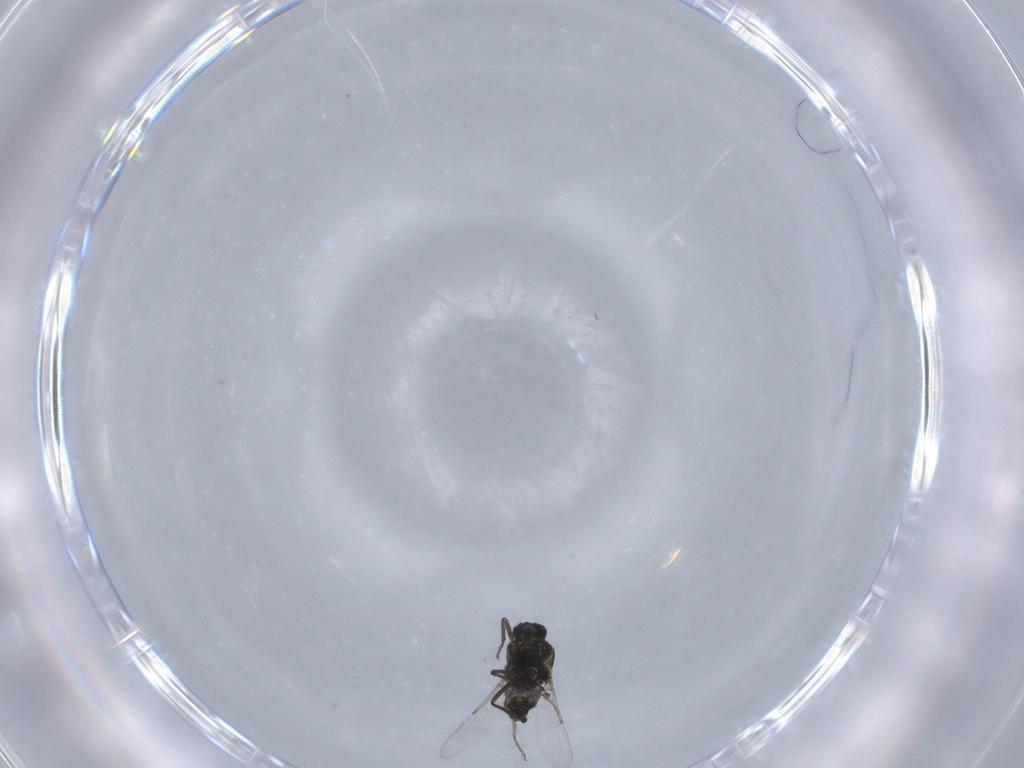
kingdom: Animalia
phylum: Arthropoda
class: Insecta
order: Diptera
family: Ceratopogonidae
